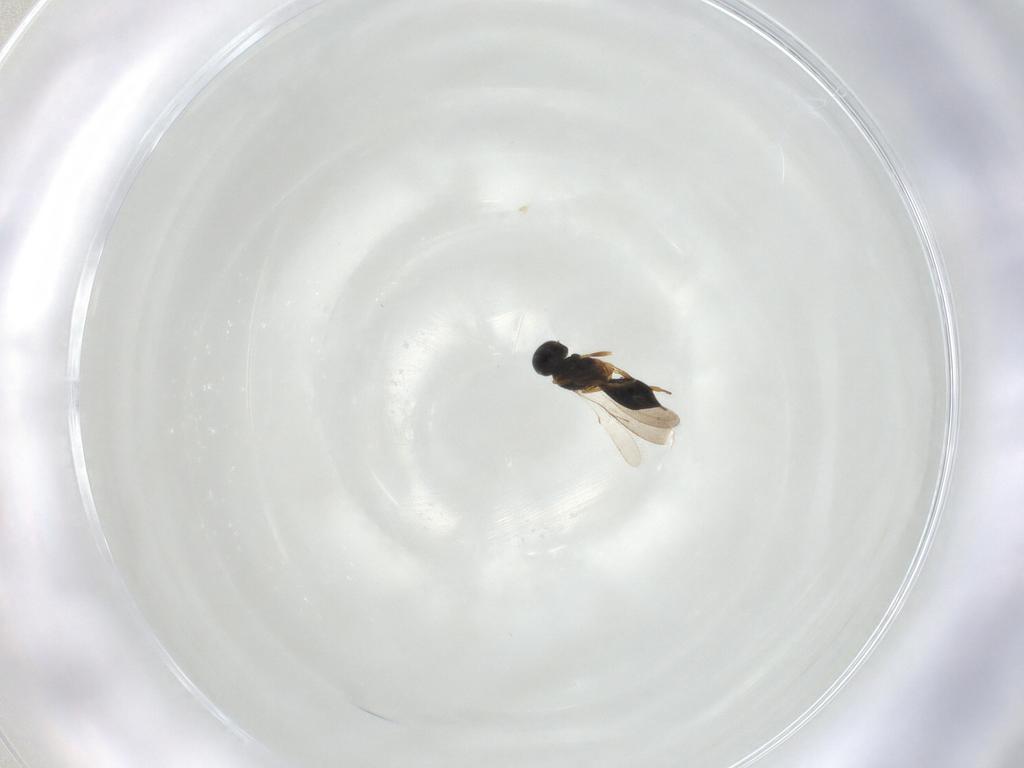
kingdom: Animalia
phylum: Arthropoda
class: Insecta
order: Hymenoptera
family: Scelionidae
